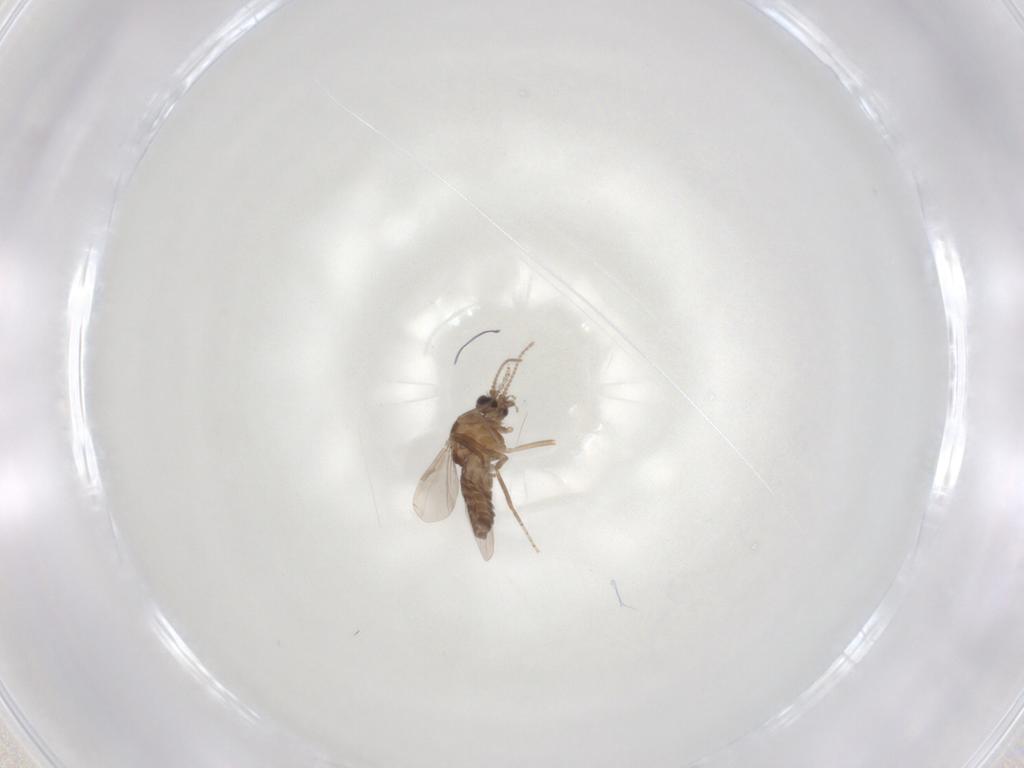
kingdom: Animalia
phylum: Arthropoda
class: Insecta
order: Diptera
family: Ceratopogonidae
